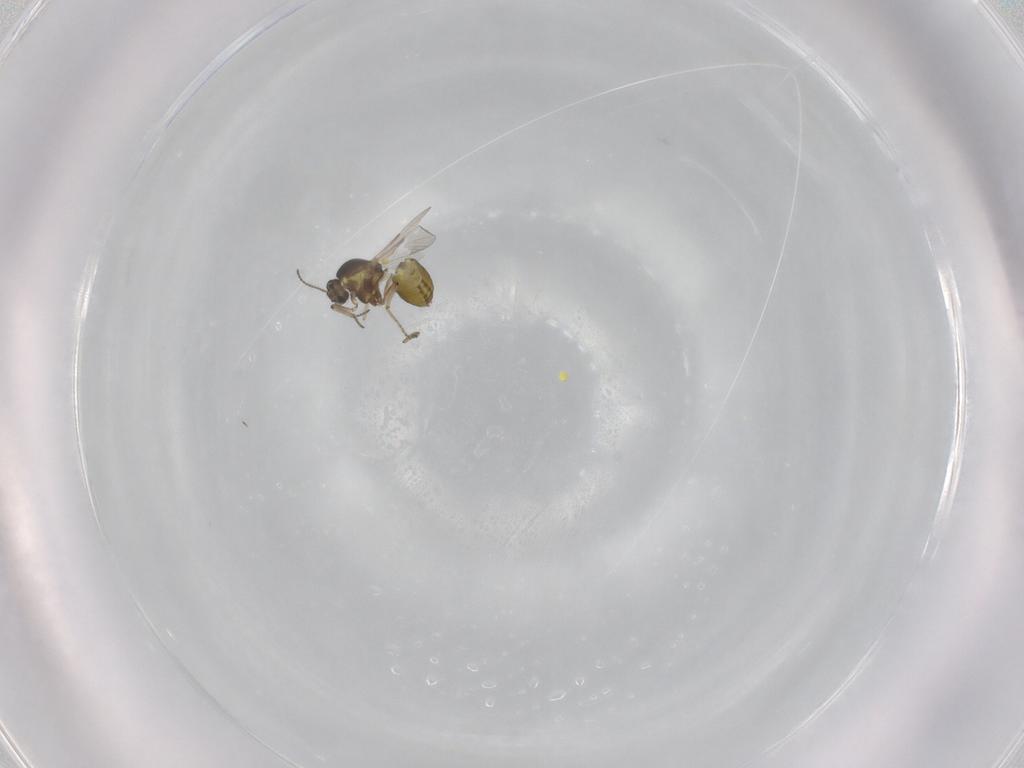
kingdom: Animalia
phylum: Arthropoda
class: Insecta
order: Diptera
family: Ceratopogonidae
